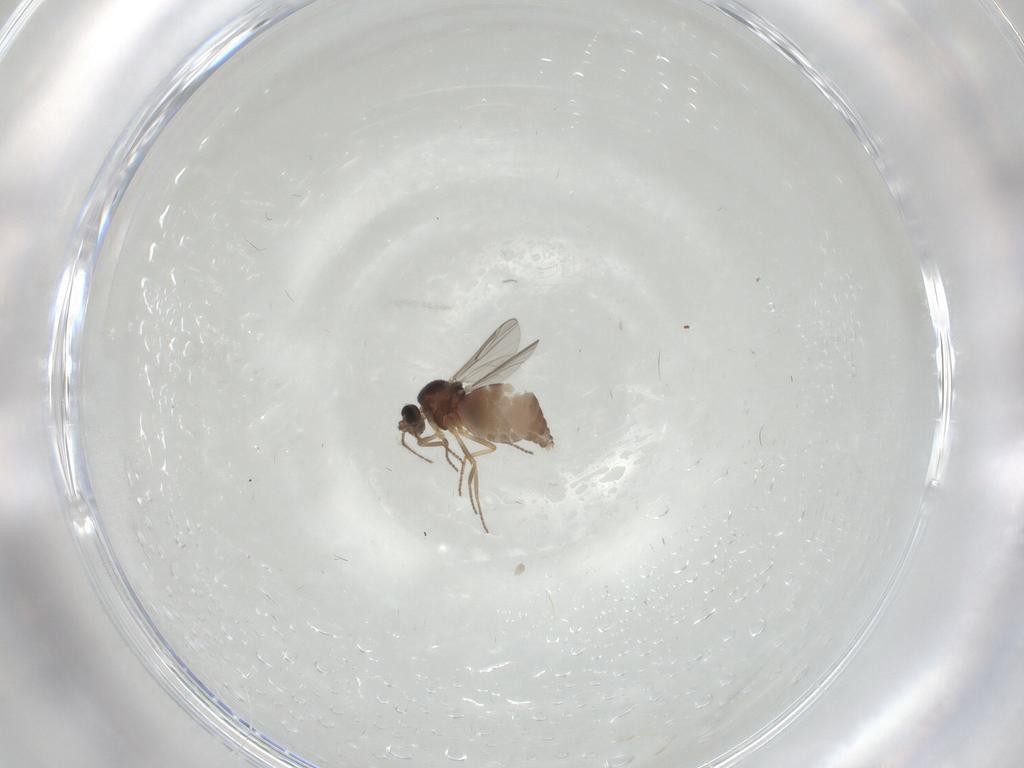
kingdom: Animalia
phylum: Arthropoda
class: Insecta
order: Diptera
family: Ceratopogonidae
